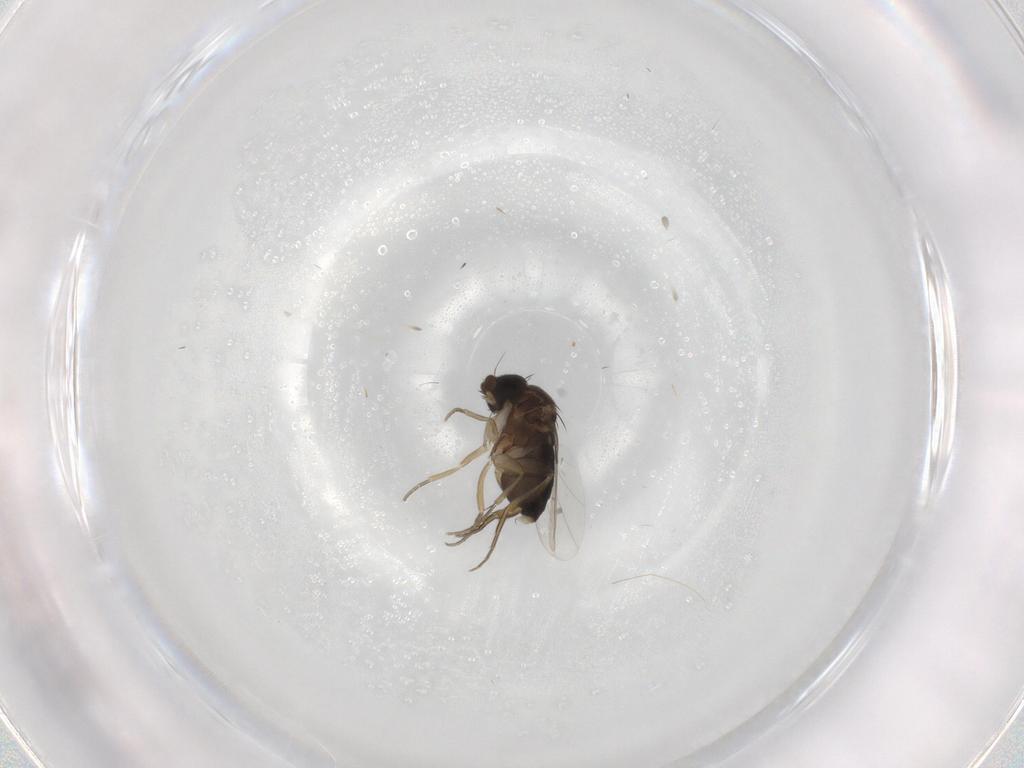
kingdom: Animalia
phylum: Arthropoda
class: Insecta
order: Diptera
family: Phoridae
